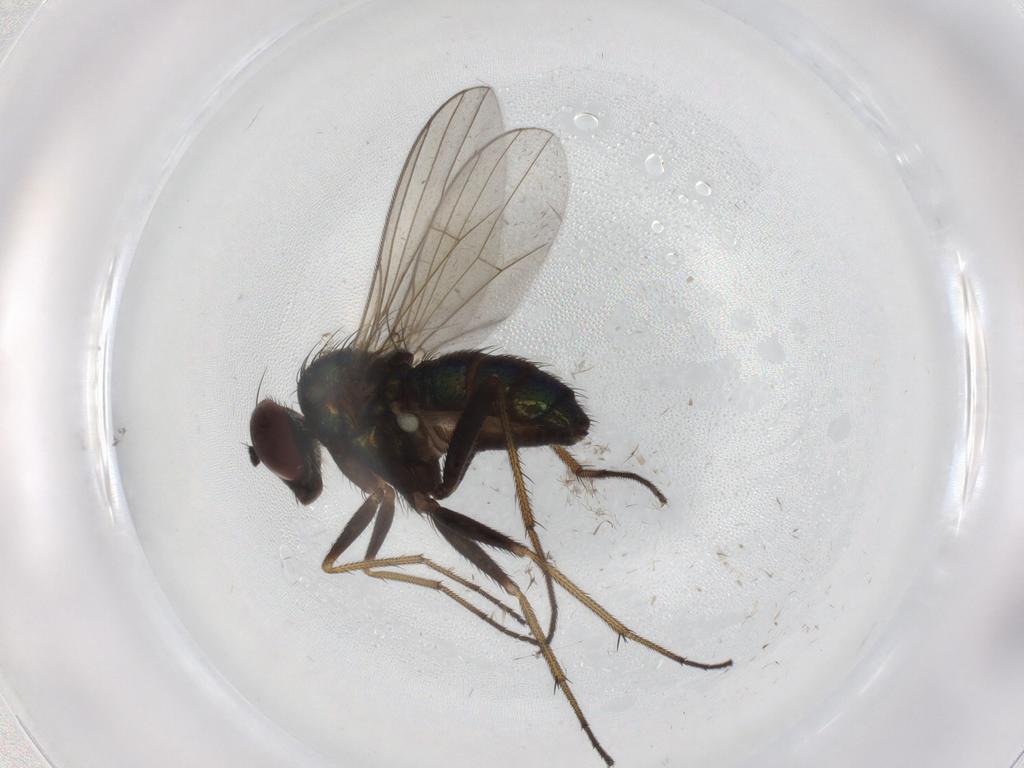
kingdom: Animalia
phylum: Arthropoda
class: Insecta
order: Diptera
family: Dolichopodidae
